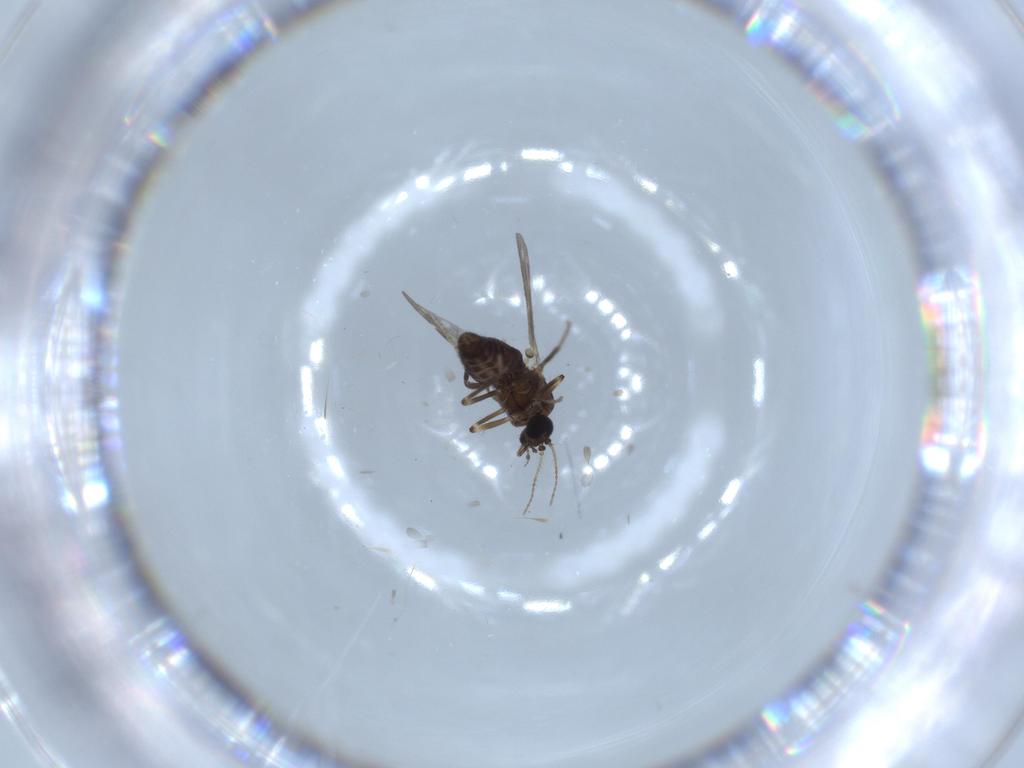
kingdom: Animalia
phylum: Arthropoda
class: Insecta
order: Diptera
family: Ceratopogonidae
